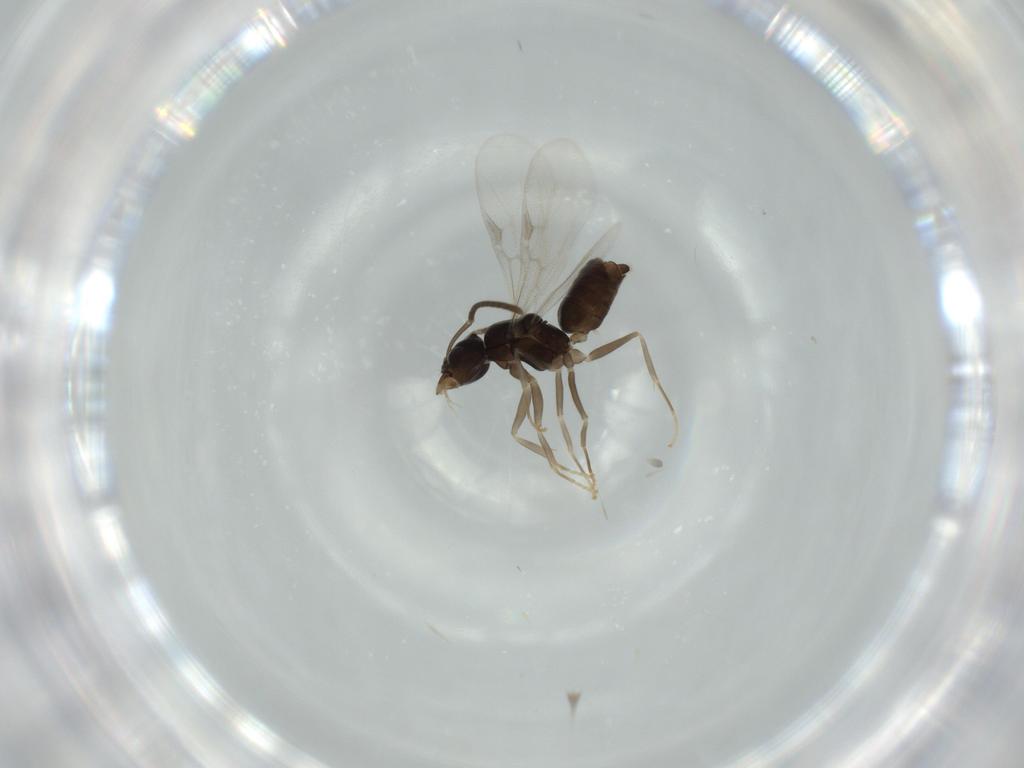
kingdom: Animalia
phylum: Arthropoda
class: Insecta
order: Hymenoptera
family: Formicidae
